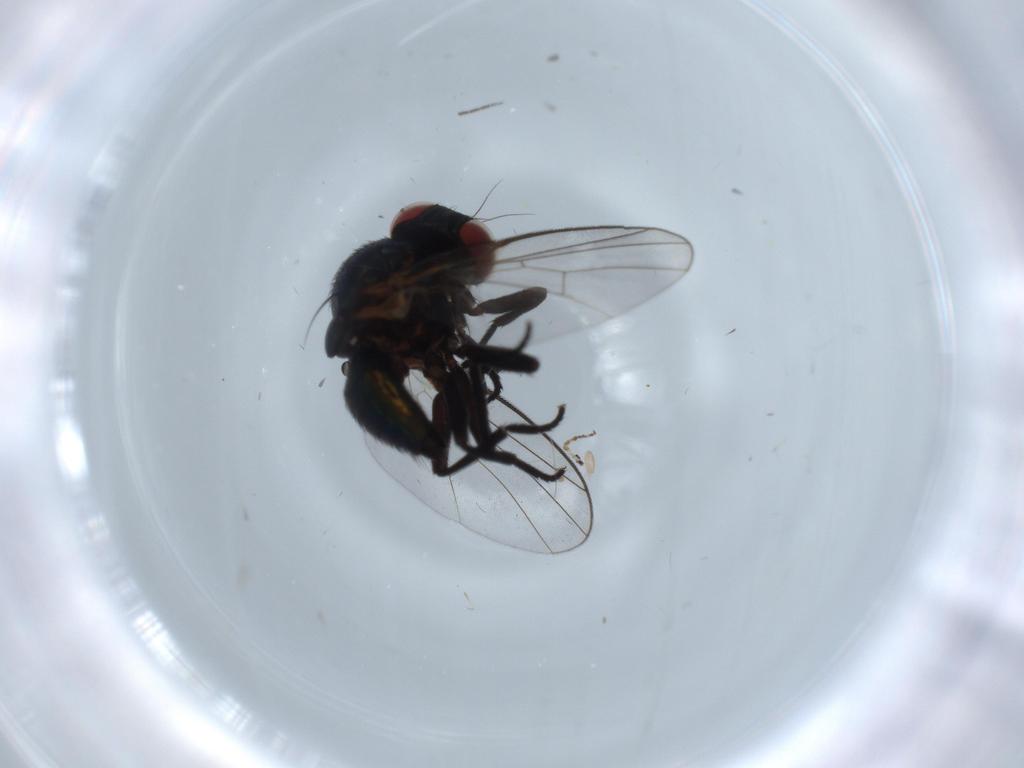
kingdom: Animalia
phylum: Arthropoda
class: Insecta
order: Diptera
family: Agromyzidae
